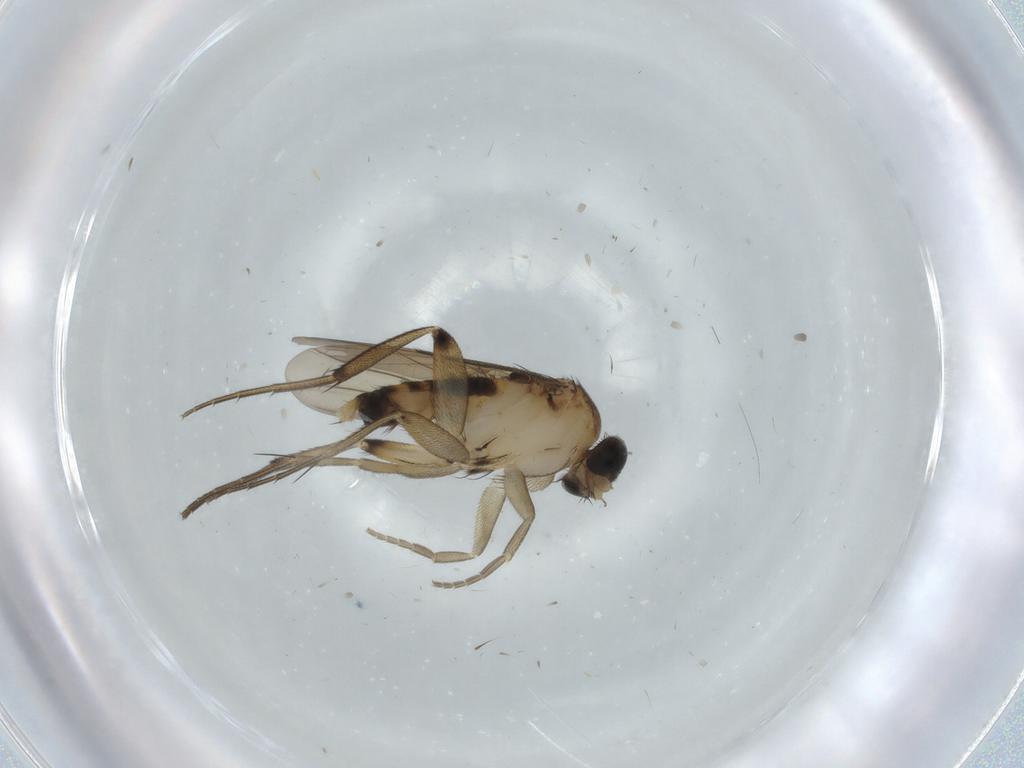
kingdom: Animalia
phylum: Arthropoda
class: Insecta
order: Diptera
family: Phoridae
